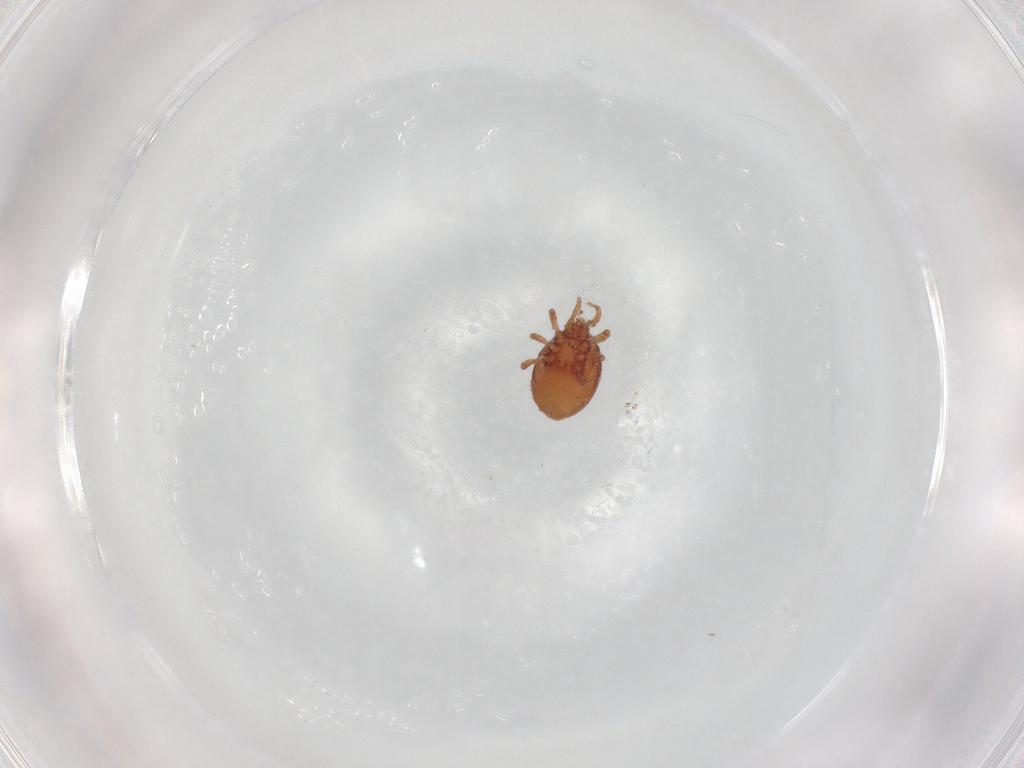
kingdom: Animalia
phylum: Arthropoda
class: Arachnida
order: Mesostigmata
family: Dinychidae
